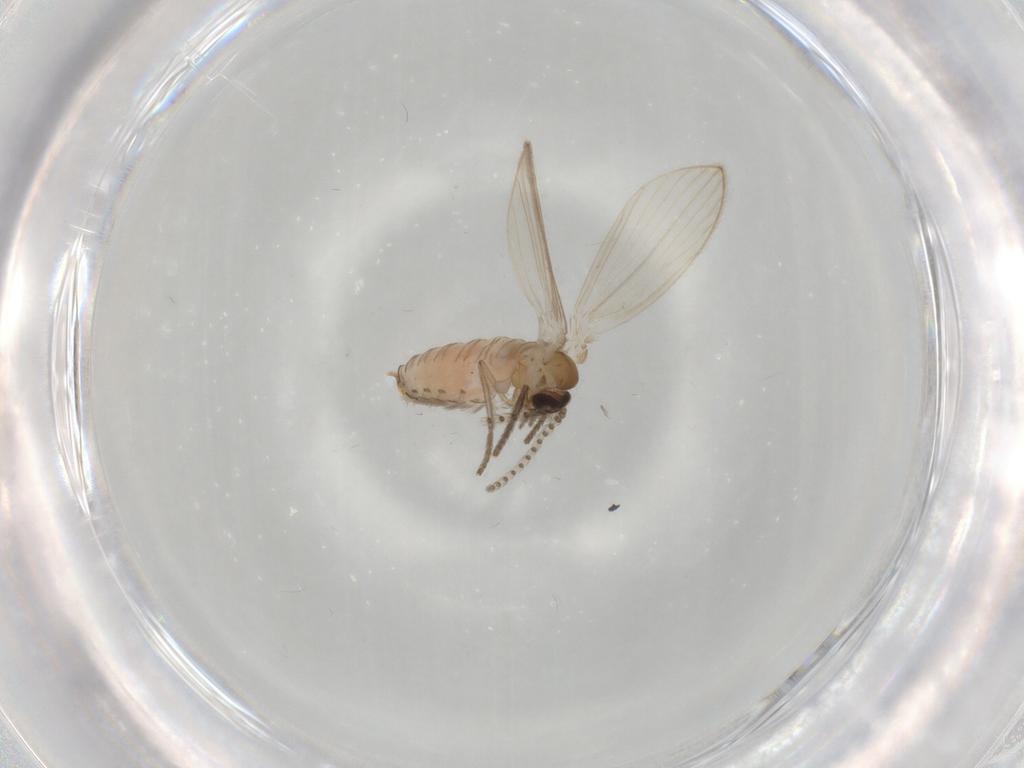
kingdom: Animalia
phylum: Arthropoda
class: Insecta
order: Diptera
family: Psychodidae
